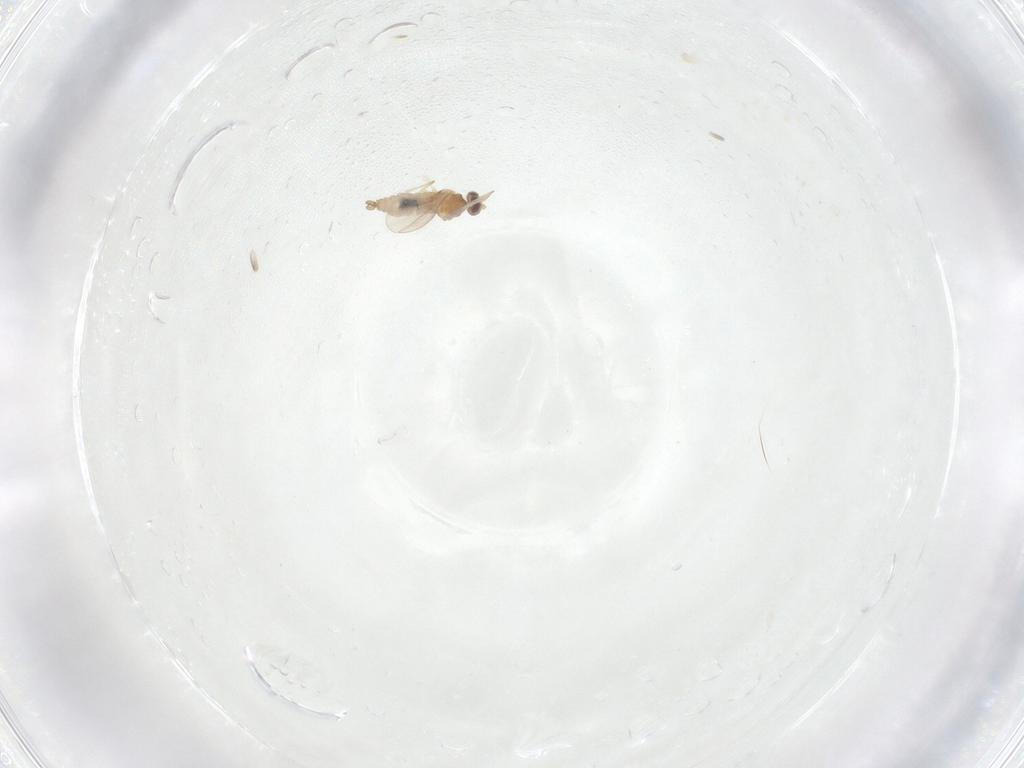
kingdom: Animalia
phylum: Arthropoda
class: Insecta
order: Diptera
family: Cecidomyiidae
